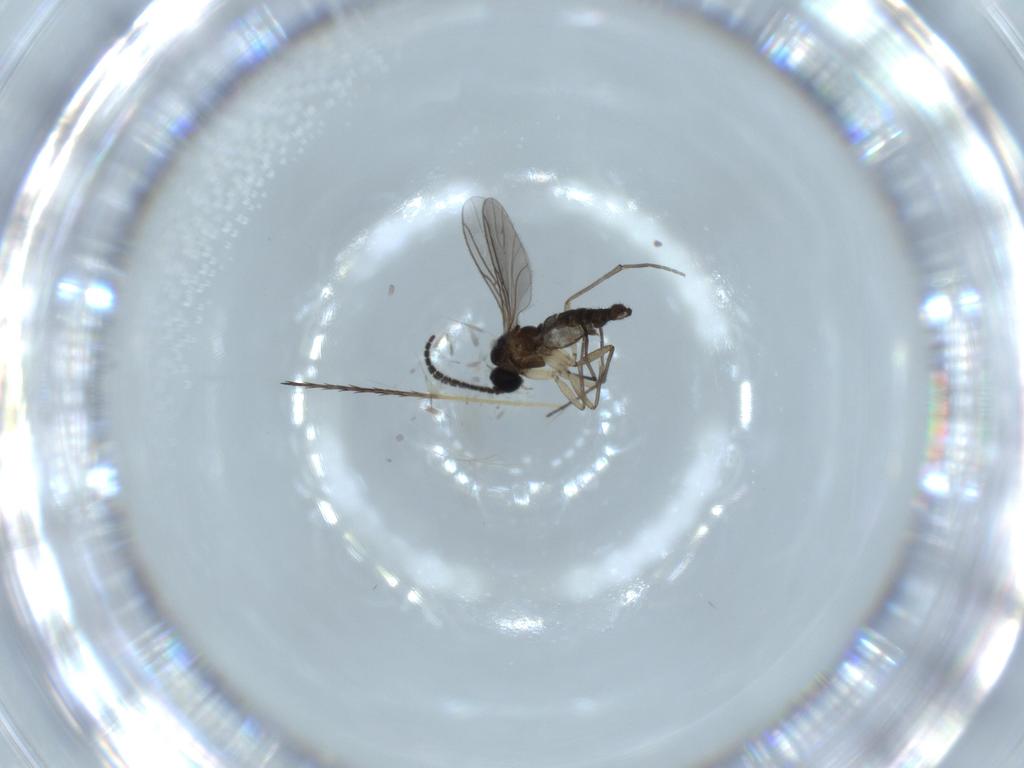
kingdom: Animalia
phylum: Arthropoda
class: Insecta
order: Diptera
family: Sciaridae
